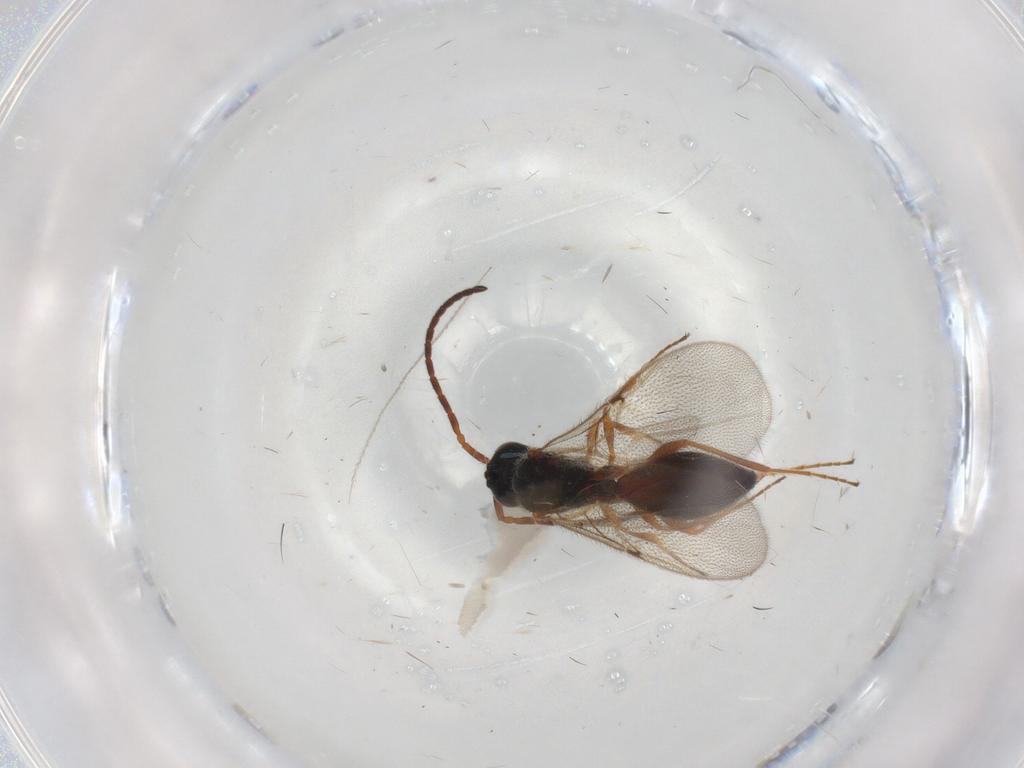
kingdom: Animalia
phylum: Arthropoda
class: Insecta
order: Hymenoptera
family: Diapriidae
